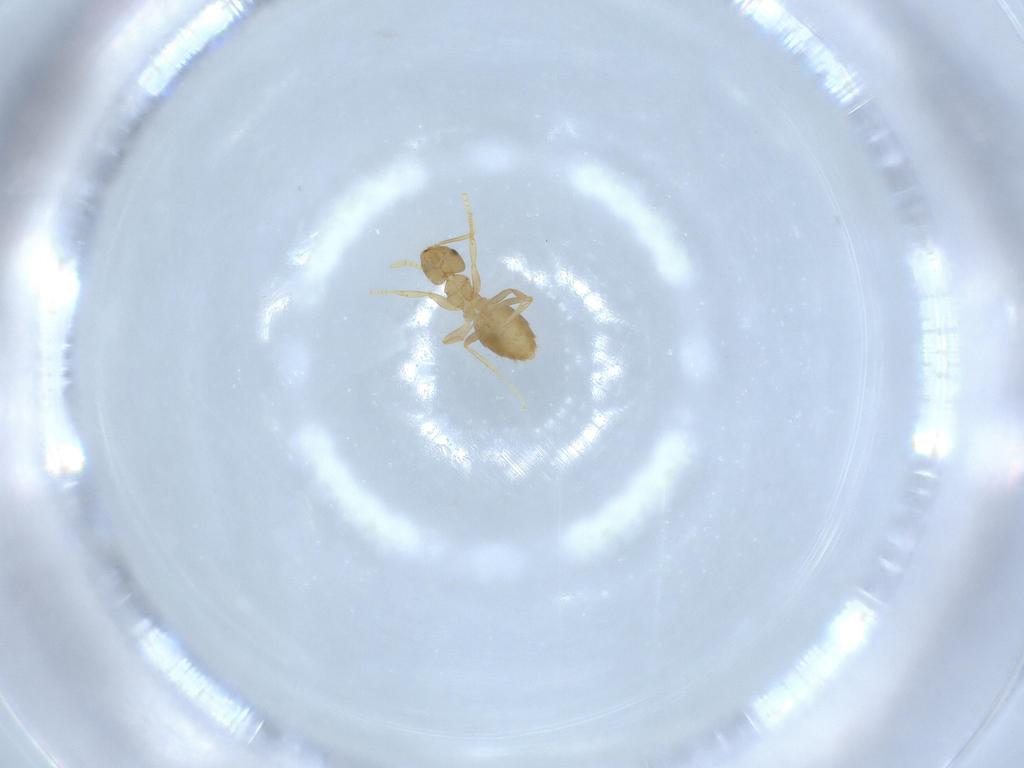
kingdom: Animalia
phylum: Arthropoda
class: Insecta
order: Hymenoptera
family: Formicidae
